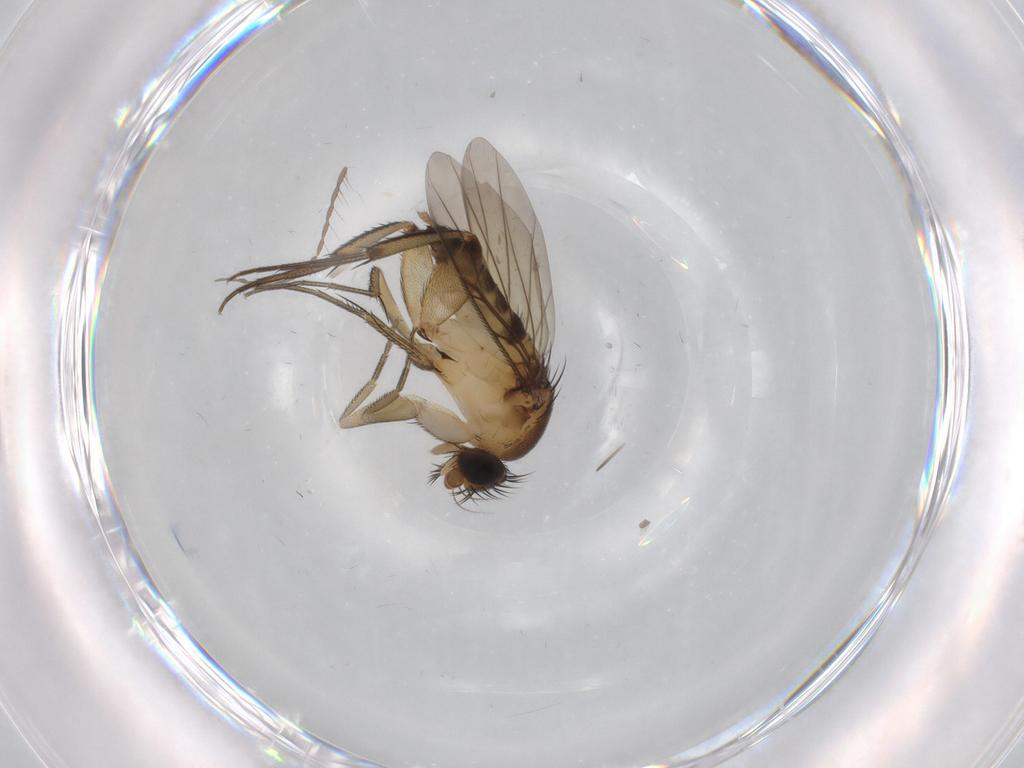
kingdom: Animalia
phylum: Arthropoda
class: Insecta
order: Diptera
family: Limoniidae
